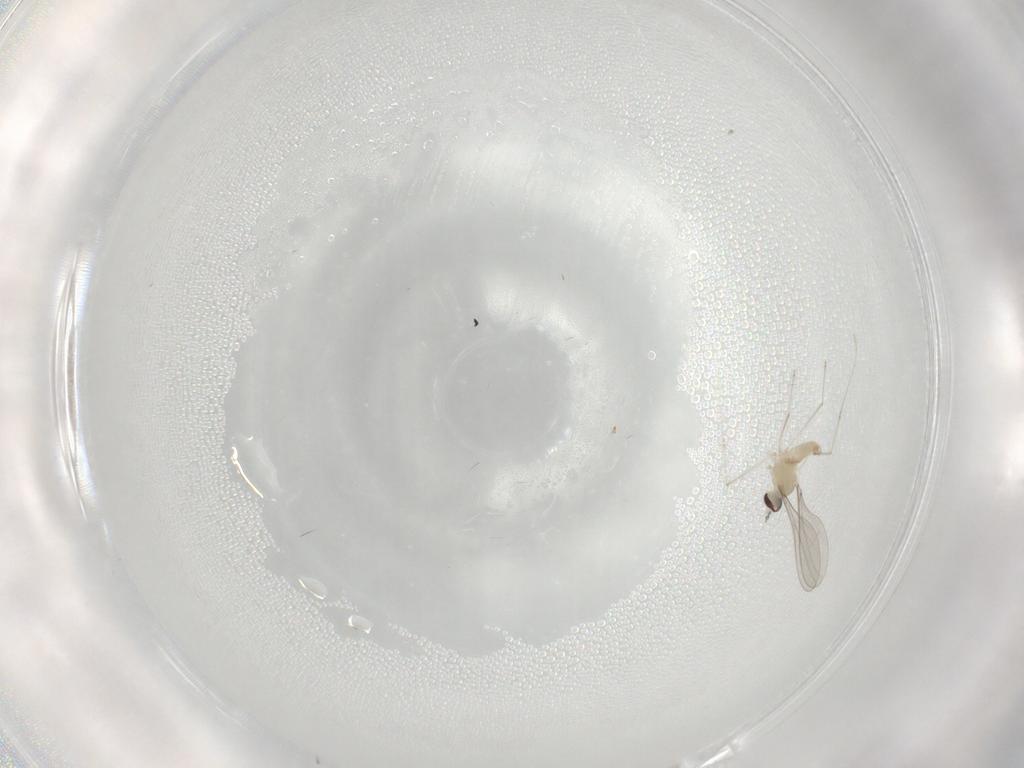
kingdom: Animalia
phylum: Arthropoda
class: Insecta
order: Diptera
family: Cecidomyiidae
